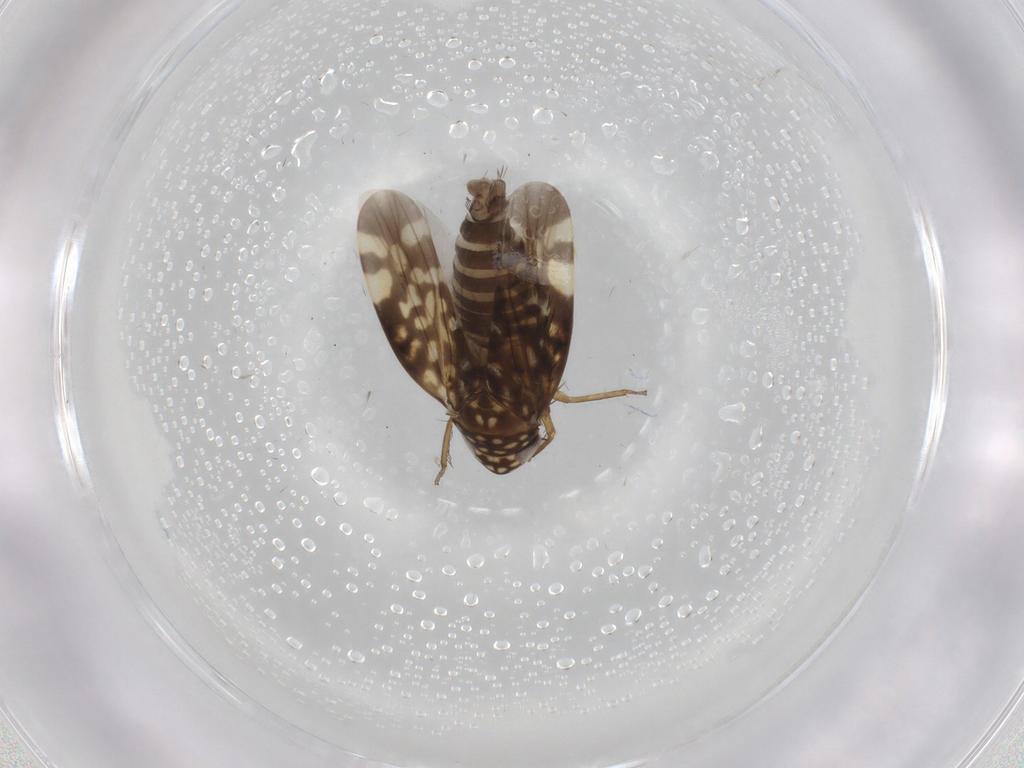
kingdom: Animalia
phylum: Arthropoda
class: Insecta
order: Hemiptera
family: Cicadellidae
